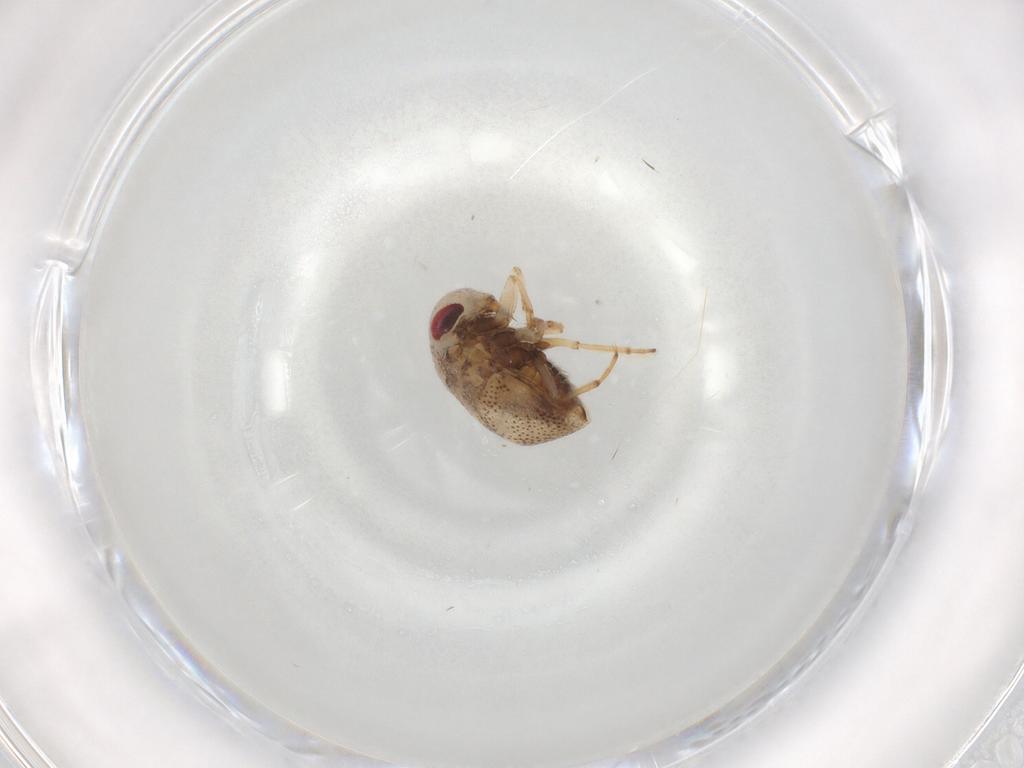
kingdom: Animalia
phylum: Arthropoda
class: Insecta
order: Hemiptera
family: Pleidae
